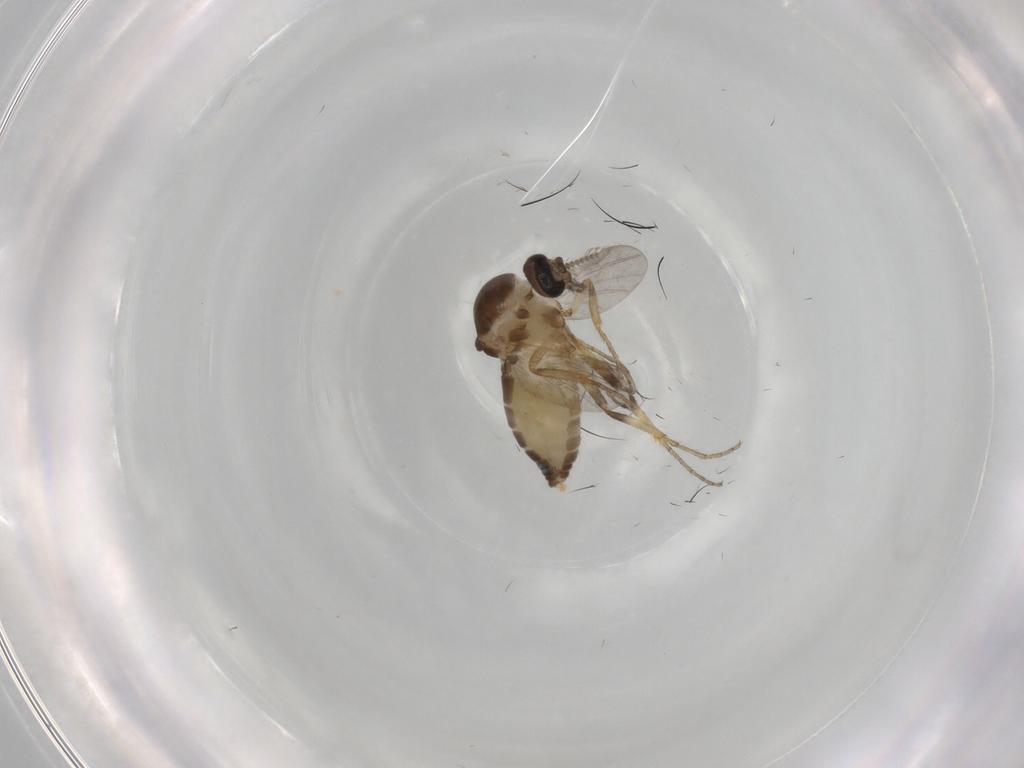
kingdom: Animalia
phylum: Arthropoda
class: Insecta
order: Diptera
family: Ceratopogonidae
